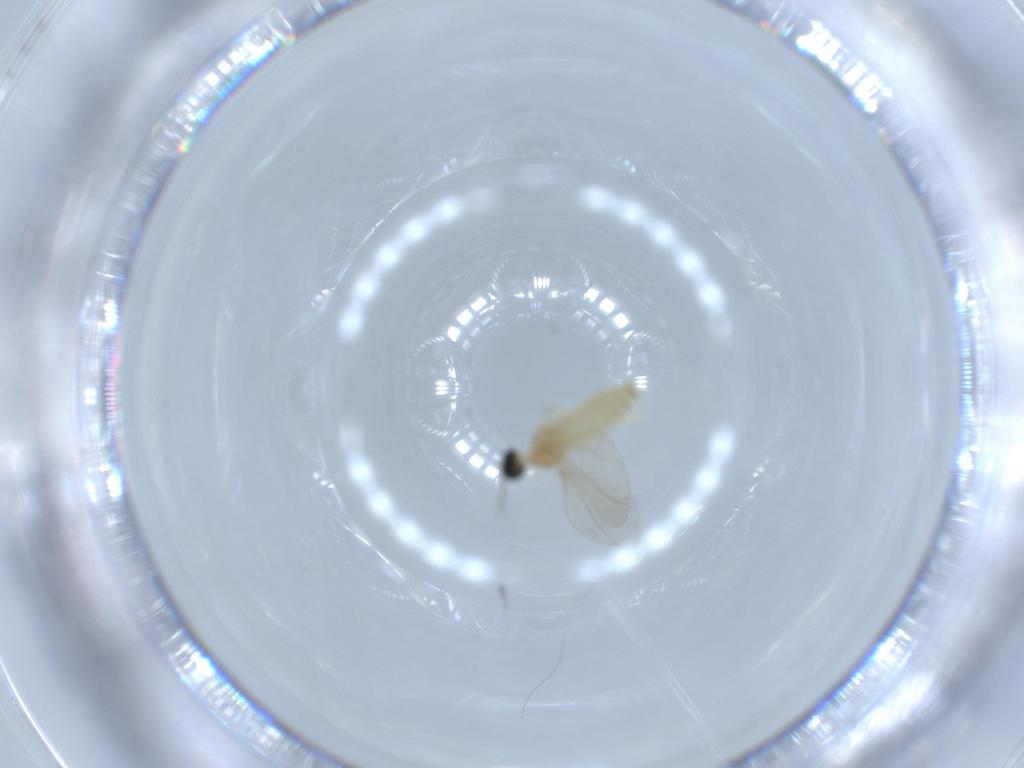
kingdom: Animalia
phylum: Arthropoda
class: Insecta
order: Diptera
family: Cecidomyiidae
